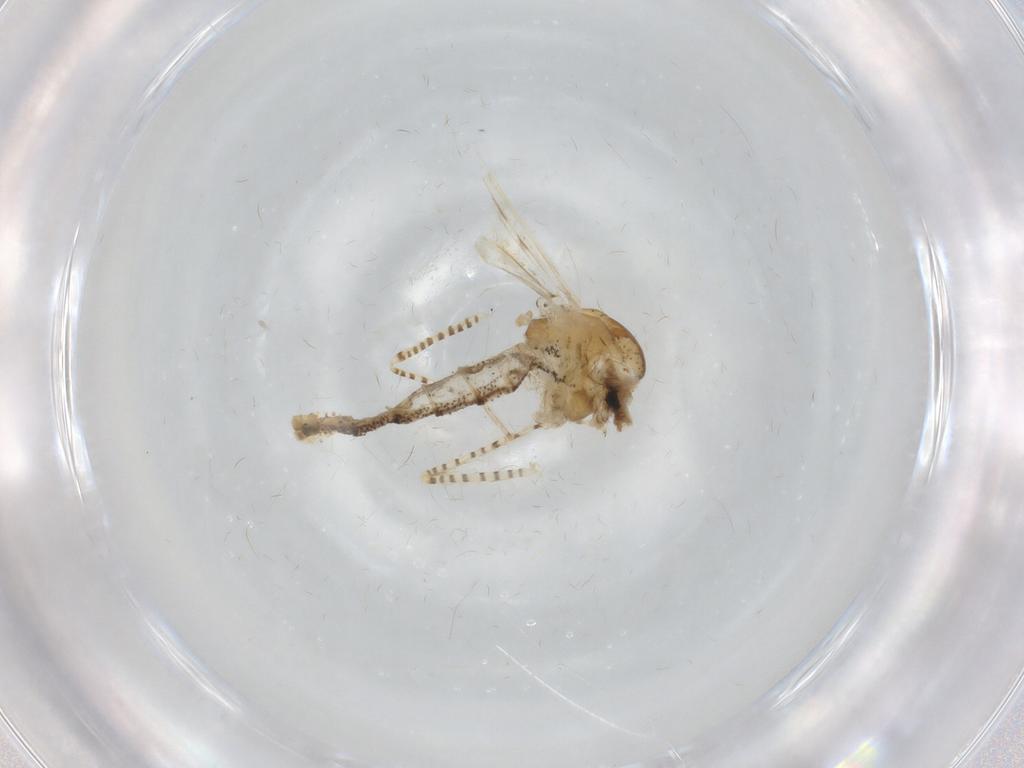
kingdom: Animalia
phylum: Arthropoda
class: Insecta
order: Diptera
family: Chaoboridae
